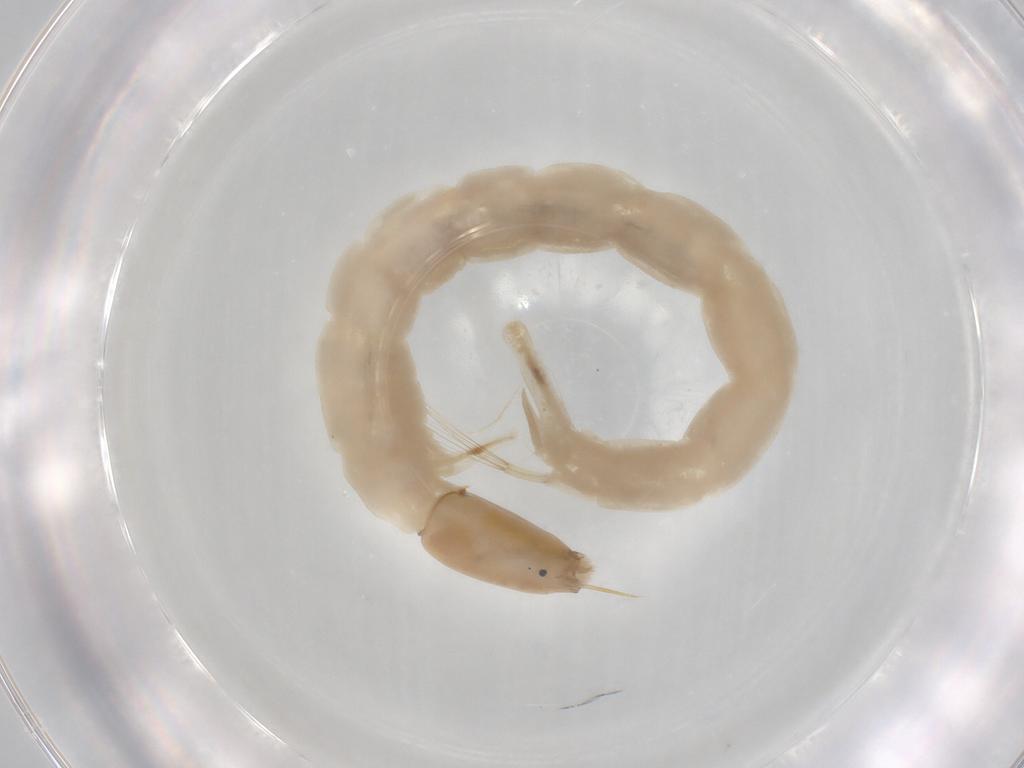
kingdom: Animalia
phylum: Arthropoda
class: Insecta
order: Diptera
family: Chironomidae
